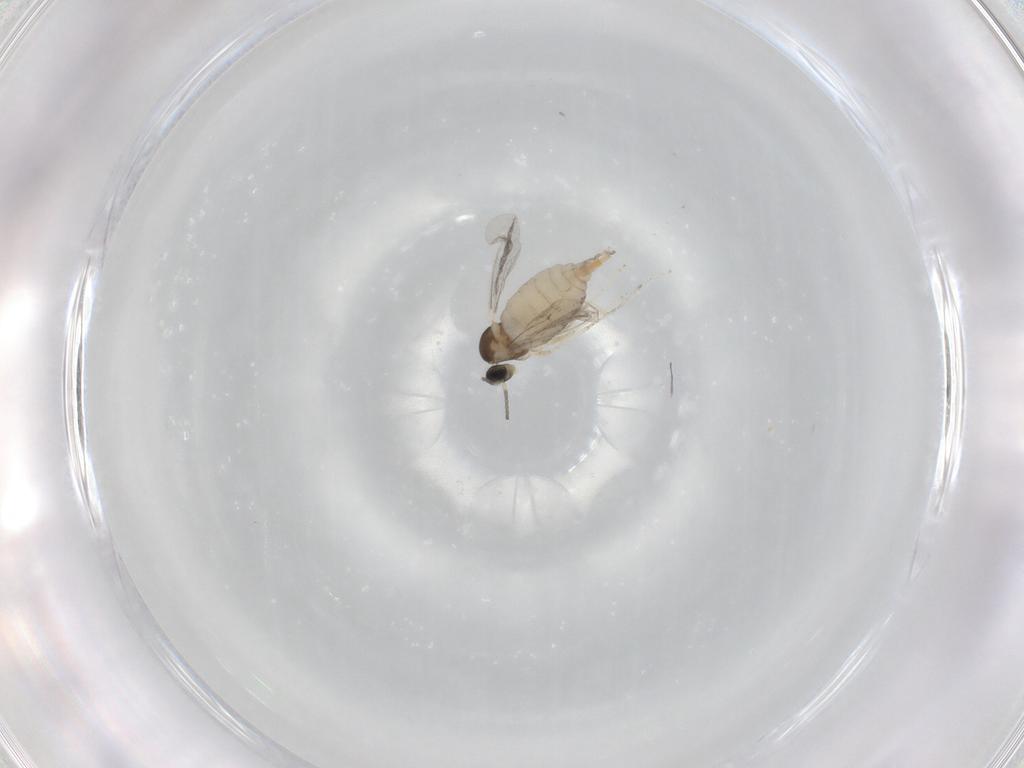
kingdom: Animalia
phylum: Arthropoda
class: Insecta
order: Diptera
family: Cecidomyiidae
